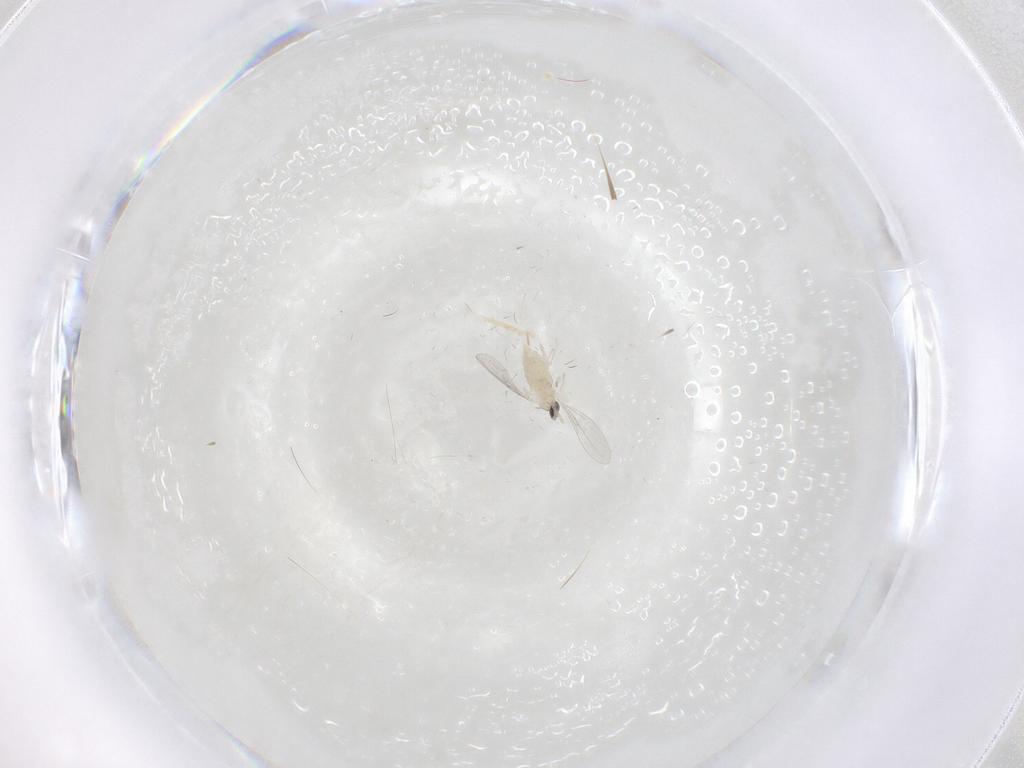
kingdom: Animalia
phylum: Arthropoda
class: Insecta
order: Diptera
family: Cecidomyiidae
